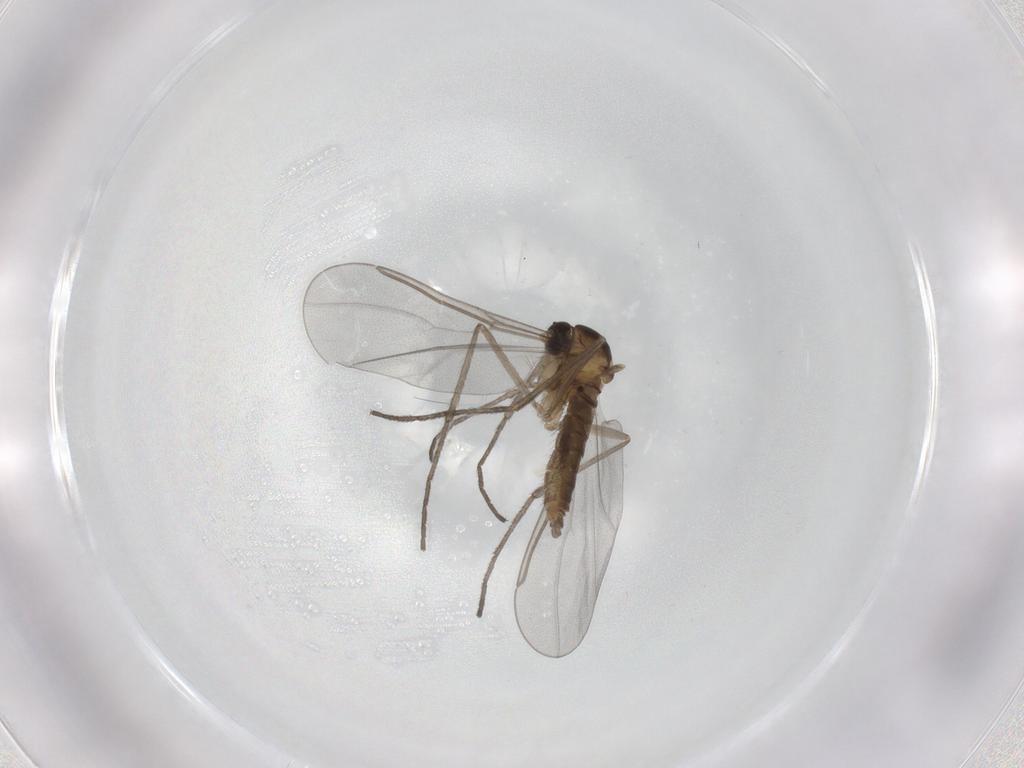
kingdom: Animalia
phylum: Arthropoda
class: Insecta
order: Diptera
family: Cecidomyiidae
